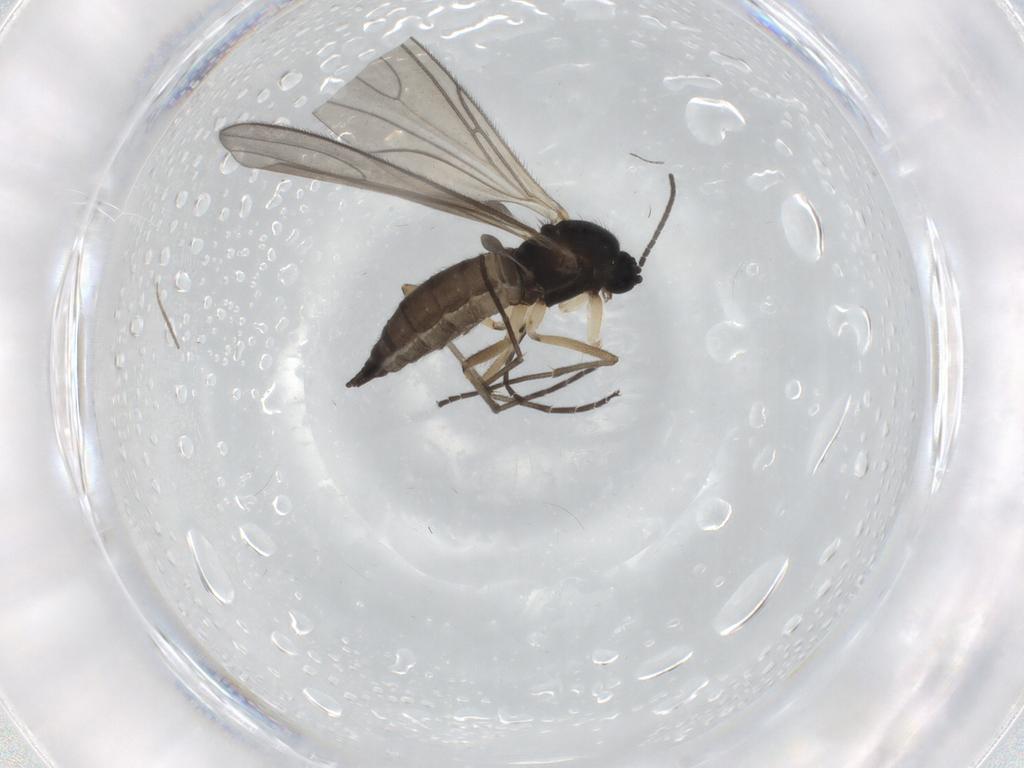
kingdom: Animalia
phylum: Arthropoda
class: Insecta
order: Diptera
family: Sciaridae
